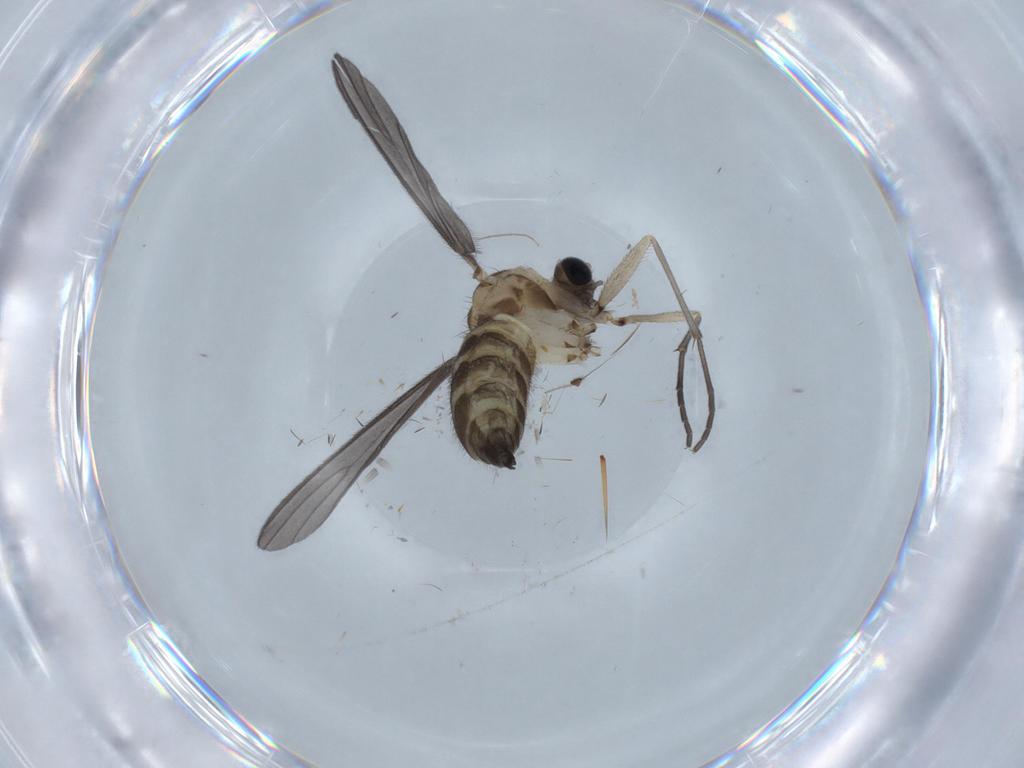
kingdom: Animalia
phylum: Arthropoda
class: Insecta
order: Diptera
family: Sciaridae
